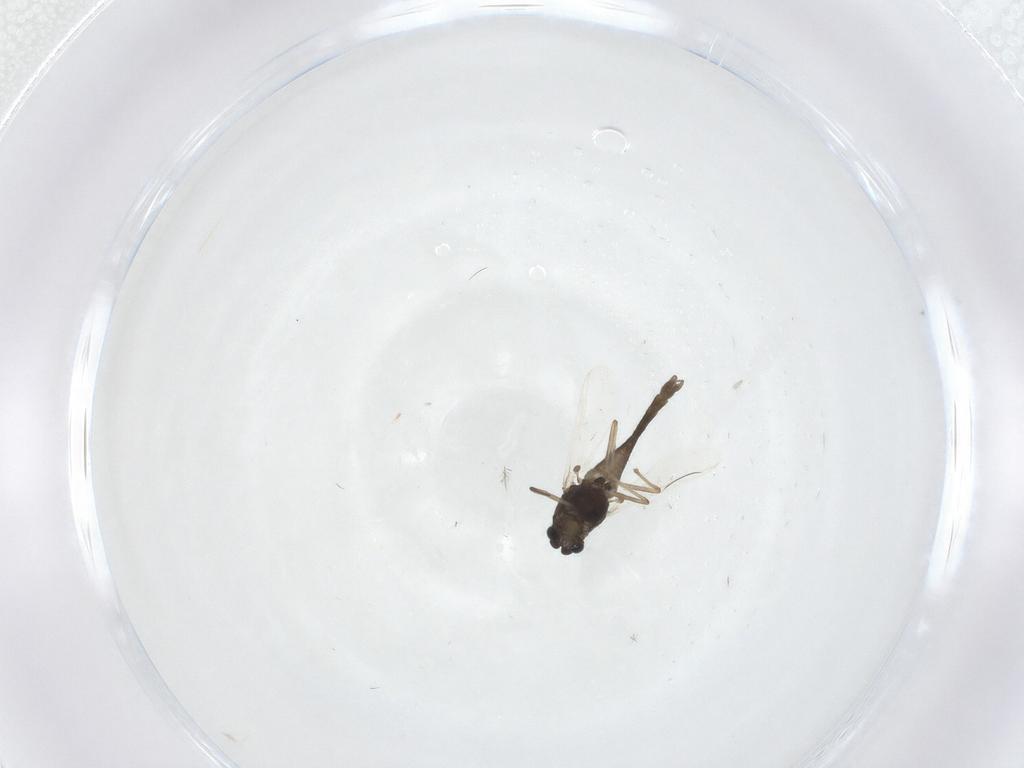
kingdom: Animalia
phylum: Arthropoda
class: Insecta
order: Diptera
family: Chironomidae
